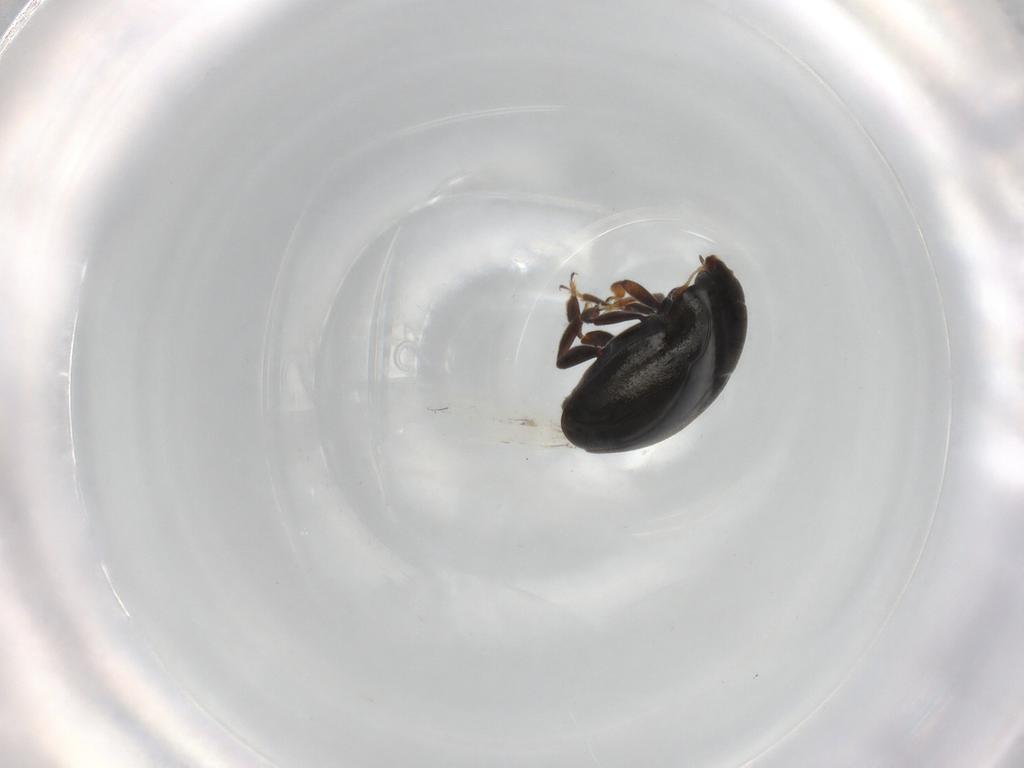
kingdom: Animalia
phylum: Arthropoda
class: Insecta
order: Coleoptera
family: Nitidulidae
